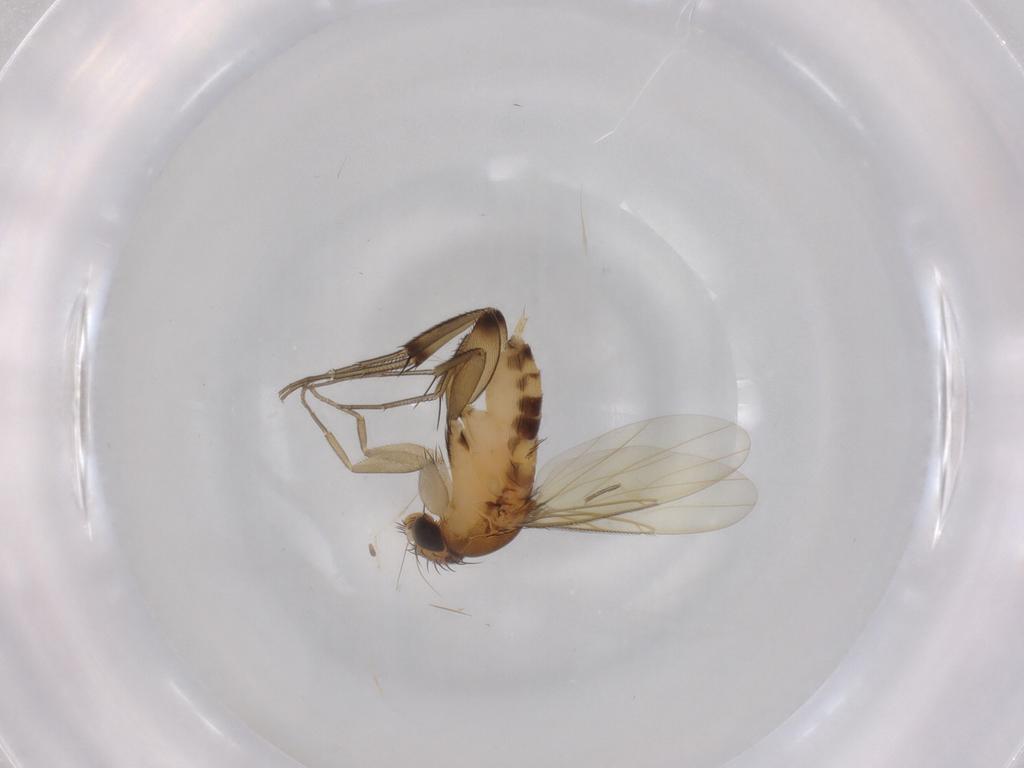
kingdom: Animalia
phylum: Arthropoda
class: Insecta
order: Diptera
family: Phoridae
